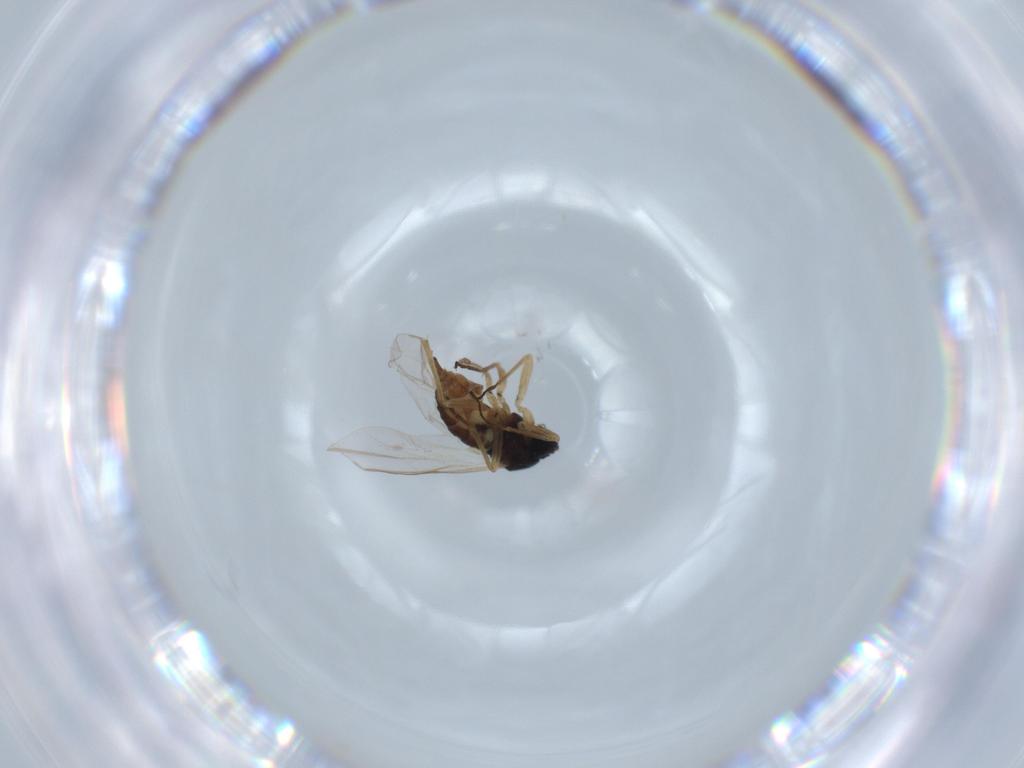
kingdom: Animalia
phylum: Arthropoda
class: Insecta
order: Diptera
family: Sciaridae
